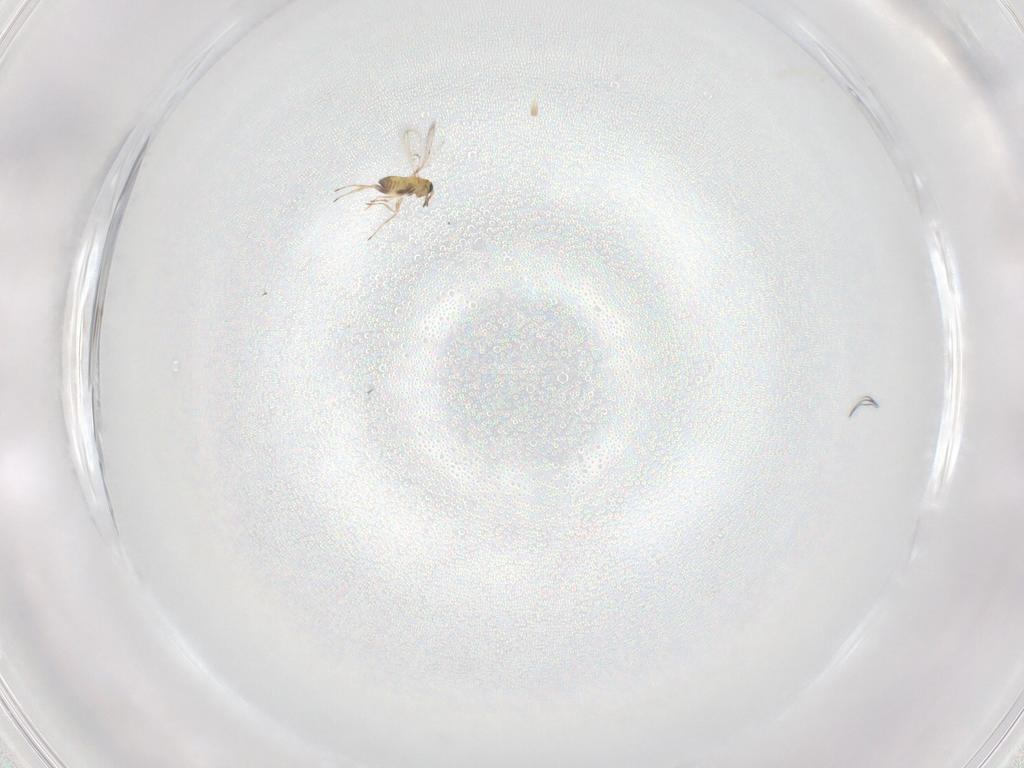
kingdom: Animalia
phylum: Arthropoda
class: Insecta
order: Hymenoptera
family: Trichogrammatidae
